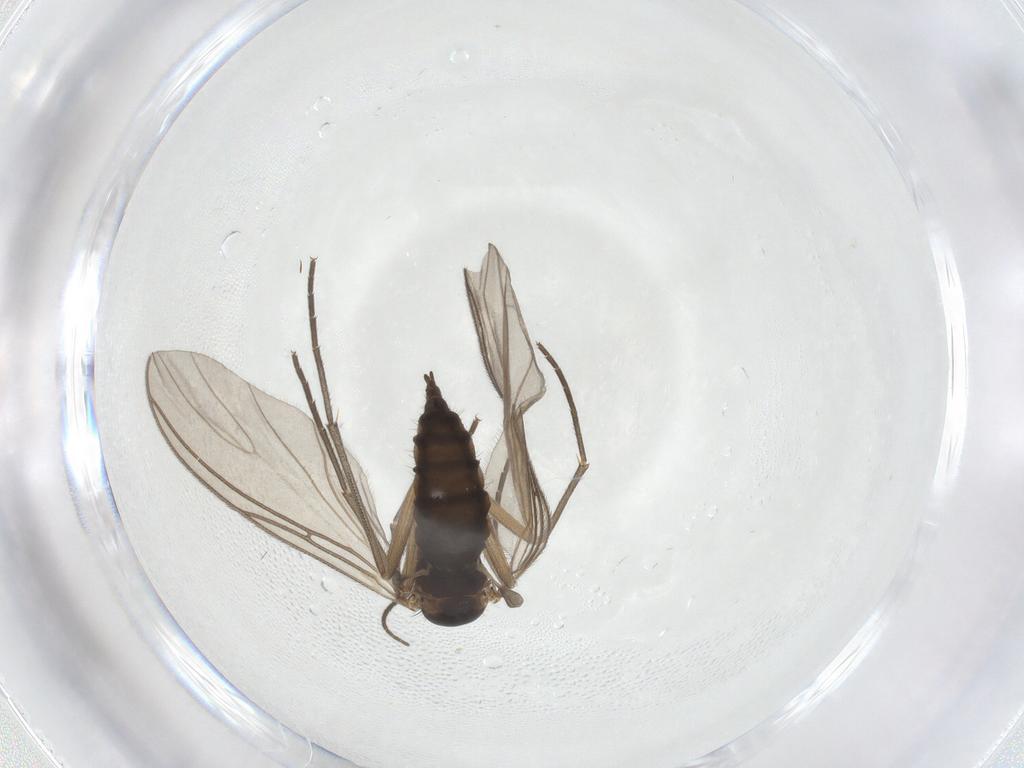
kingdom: Animalia
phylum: Arthropoda
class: Insecta
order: Diptera
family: Sciaridae
